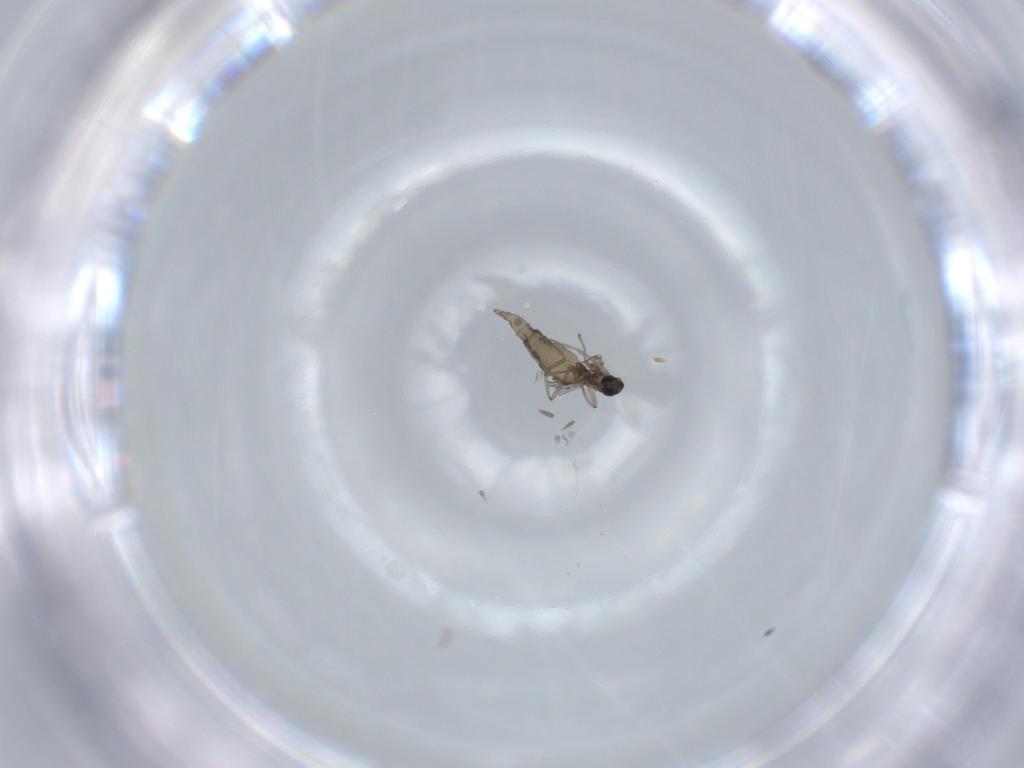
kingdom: Animalia
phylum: Arthropoda
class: Insecta
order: Diptera
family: Cecidomyiidae
